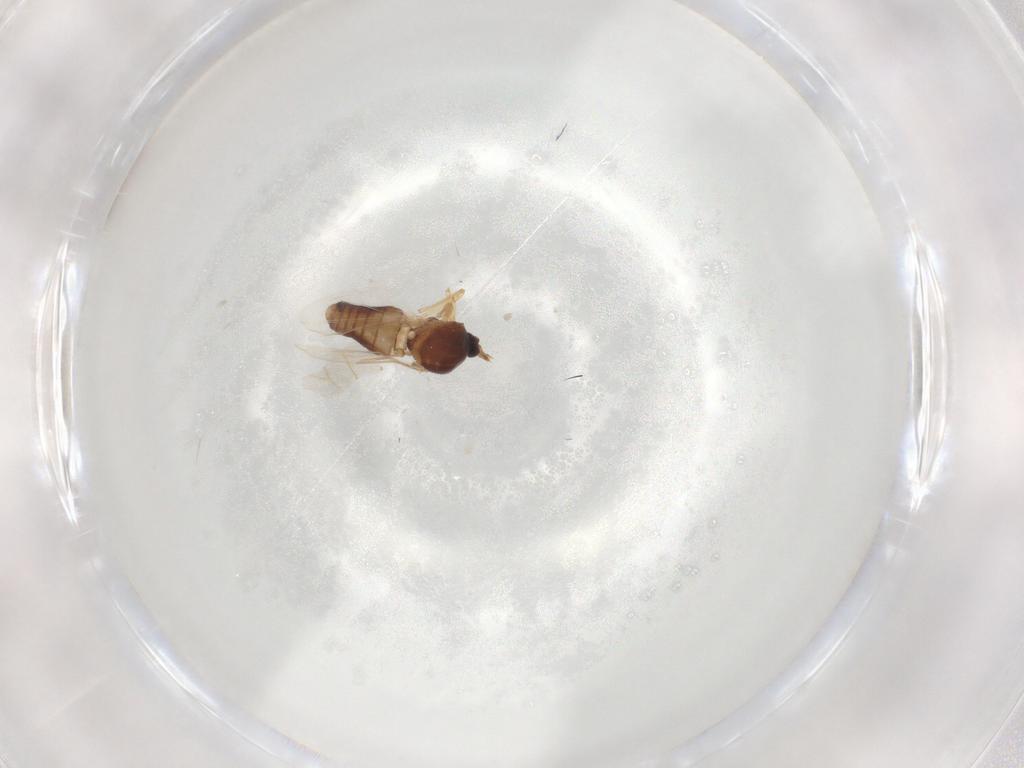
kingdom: Animalia
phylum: Arthropoda
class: Insecta
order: Diptera
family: Ceratopogonidae
